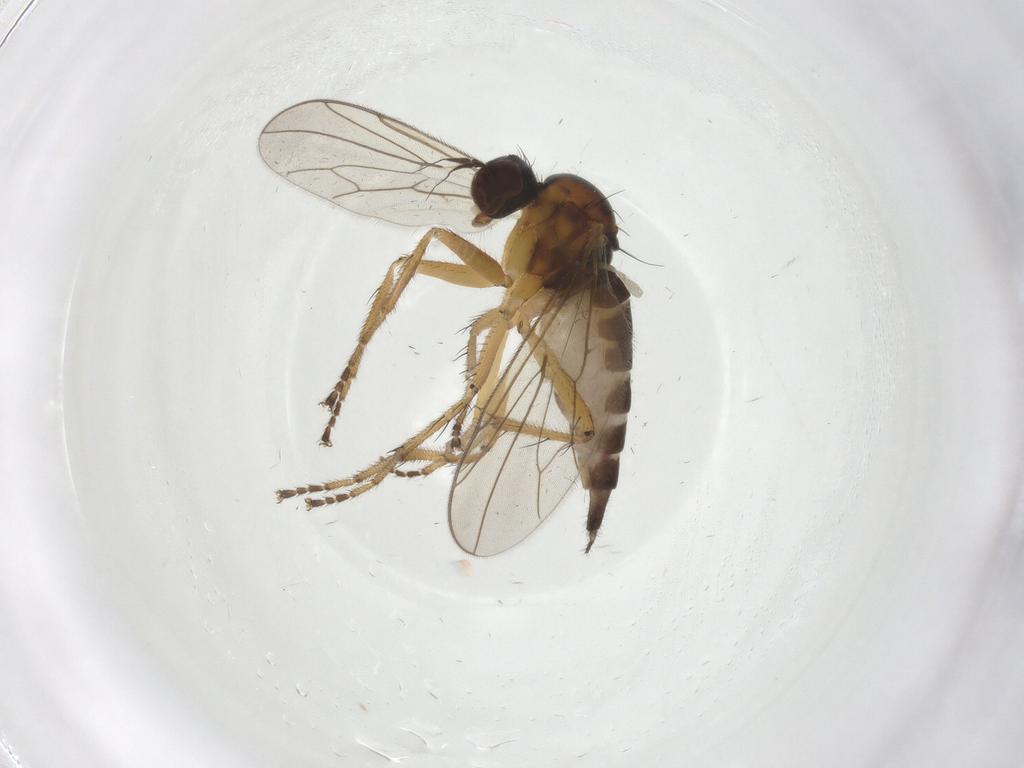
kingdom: Animalia
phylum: Arthropoda
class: Insecta
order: Diptera
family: Hybotidae
